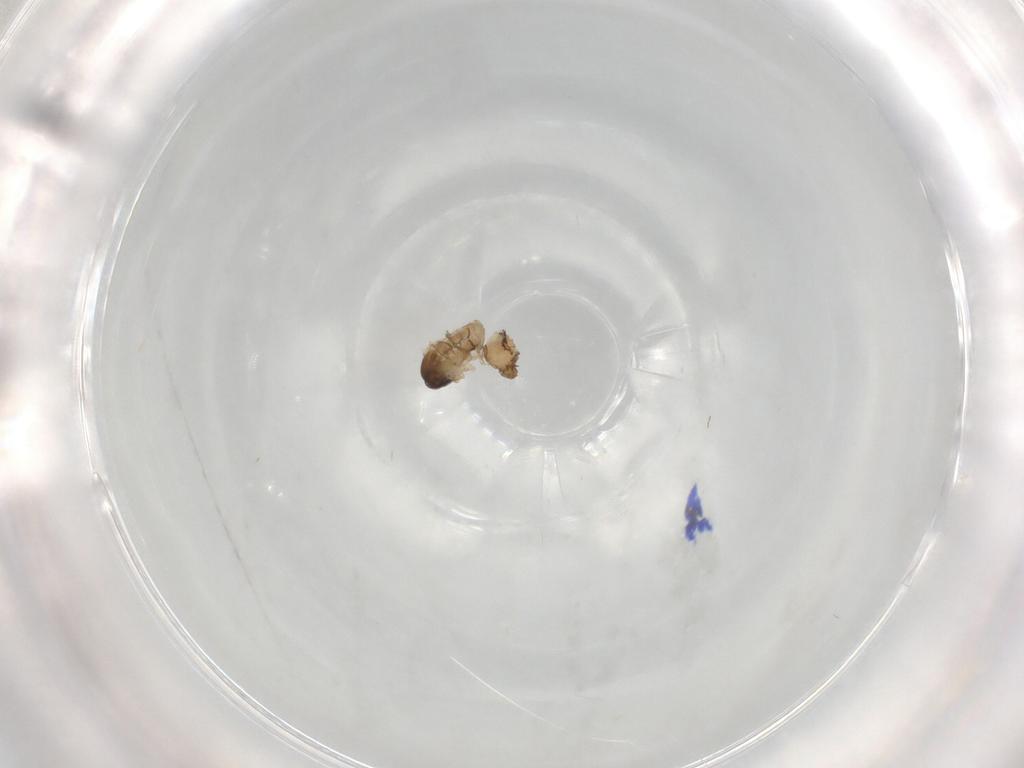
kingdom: Animalia
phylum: Arthropoda
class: Insecta
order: Diptera
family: Psychodidae
